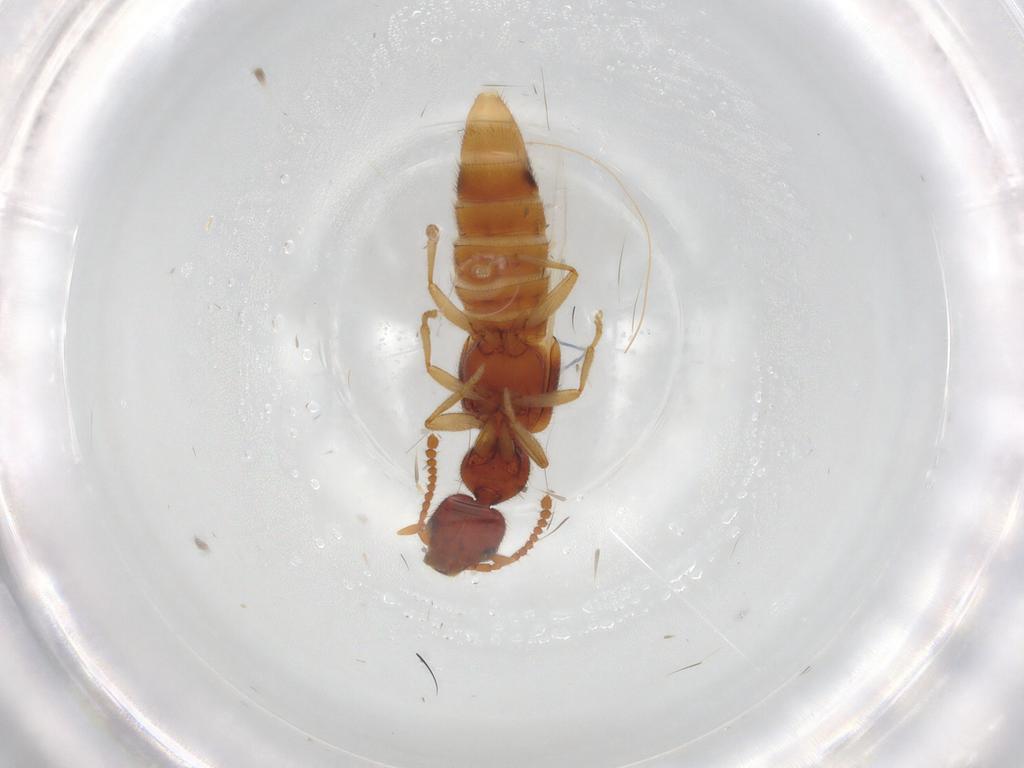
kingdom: Animalia
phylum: Arthropoda
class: Insecta
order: Coleoptera
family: Staphylinidae
